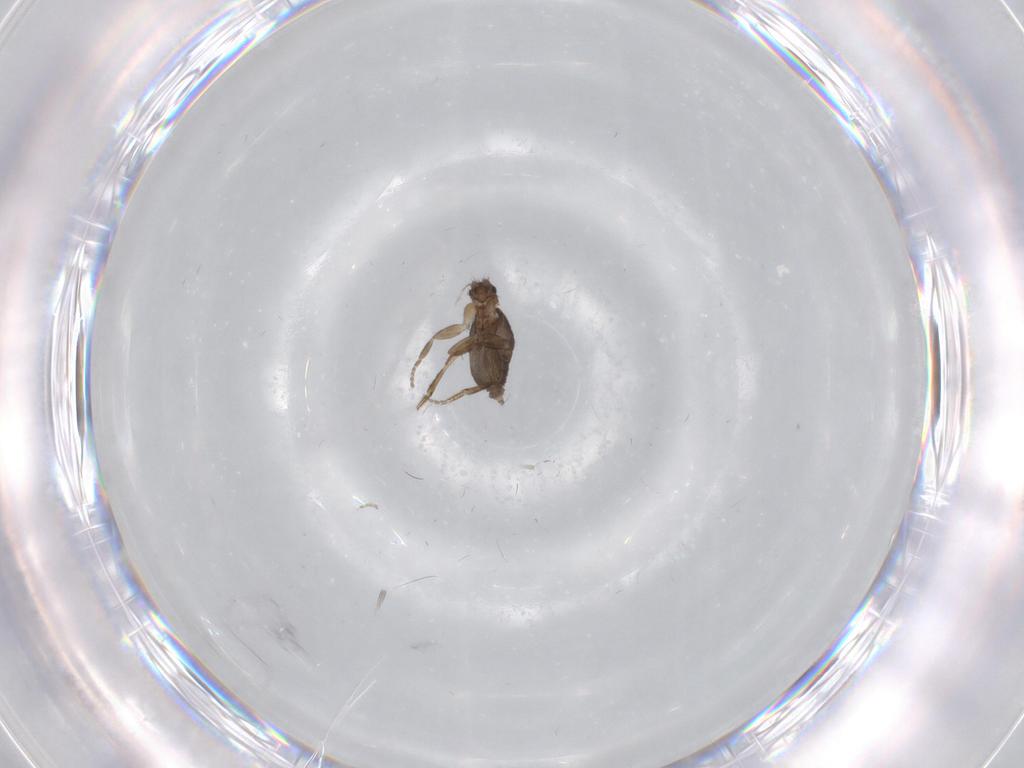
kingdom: Animalia
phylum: Arthropoda
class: Insecta
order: Diptera
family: Phoridae
